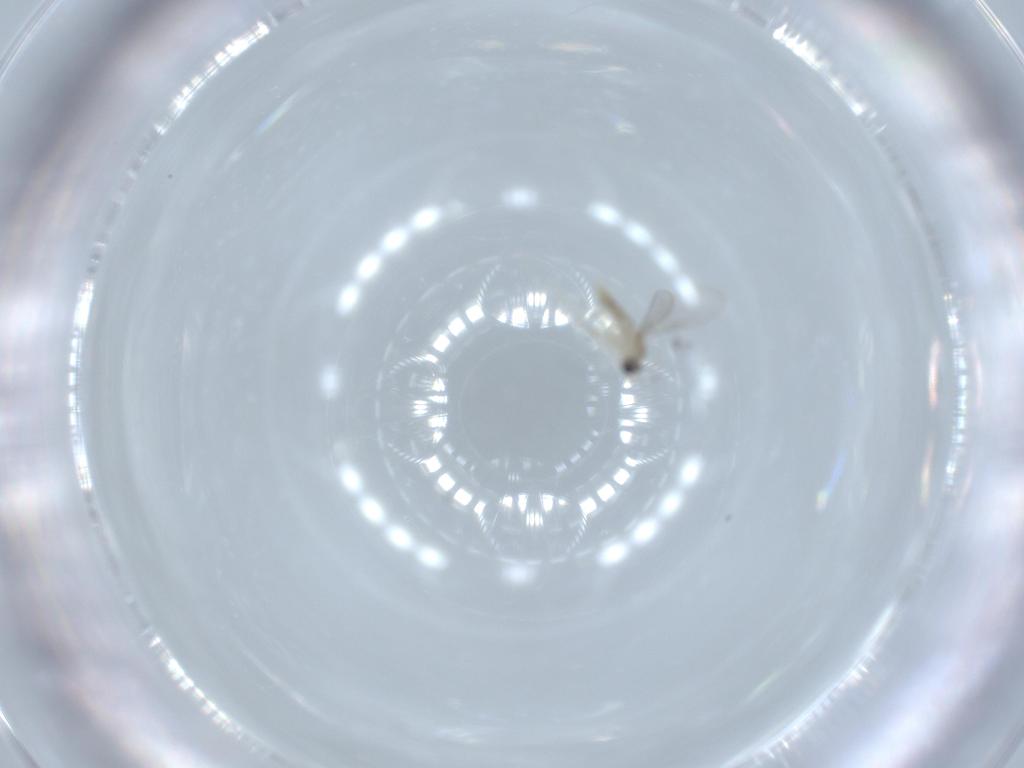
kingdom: Animalia
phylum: Arthropoda
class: Insecta
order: Diptera
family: Cecidomyiidae
